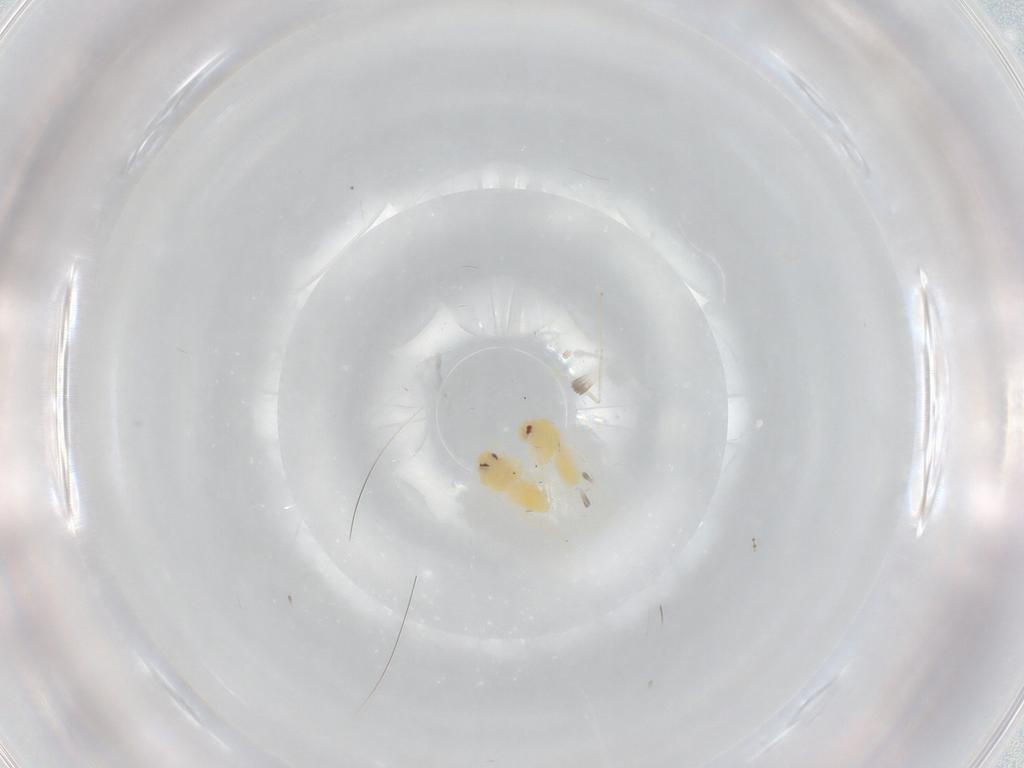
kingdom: Animalia
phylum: Arthropoda
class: Insecta
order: Hemiptera
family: Aleyrodidae
